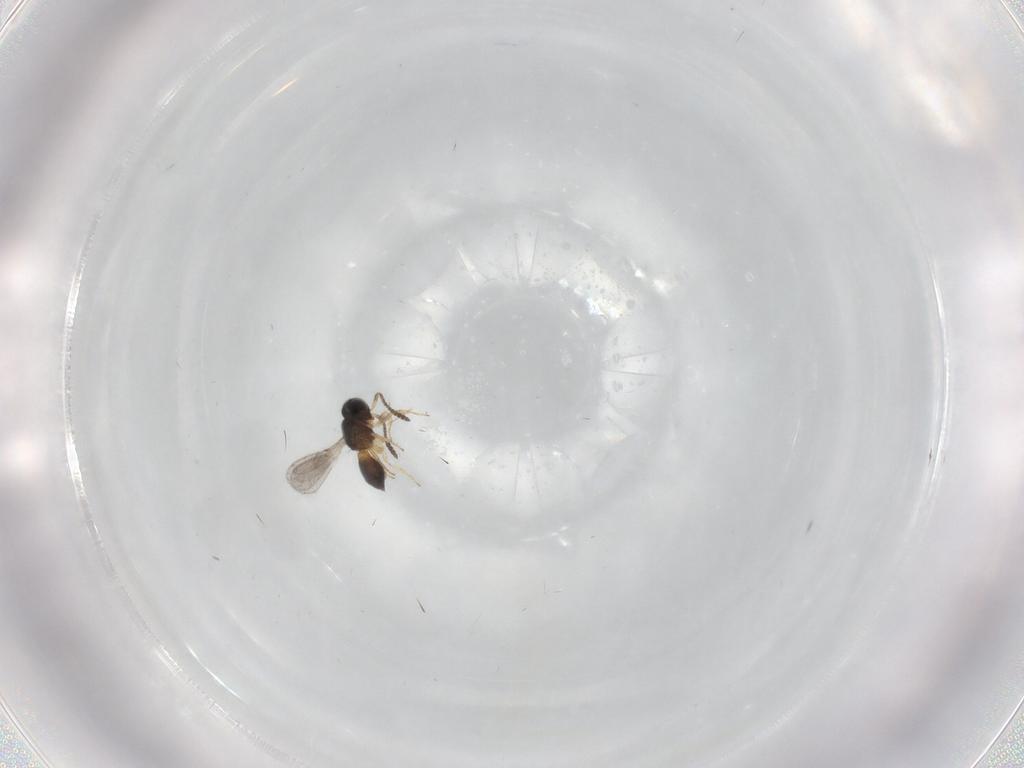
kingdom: Animalia
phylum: Arthropoda
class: Insecta
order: Hymenoptera
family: Scelionidae
